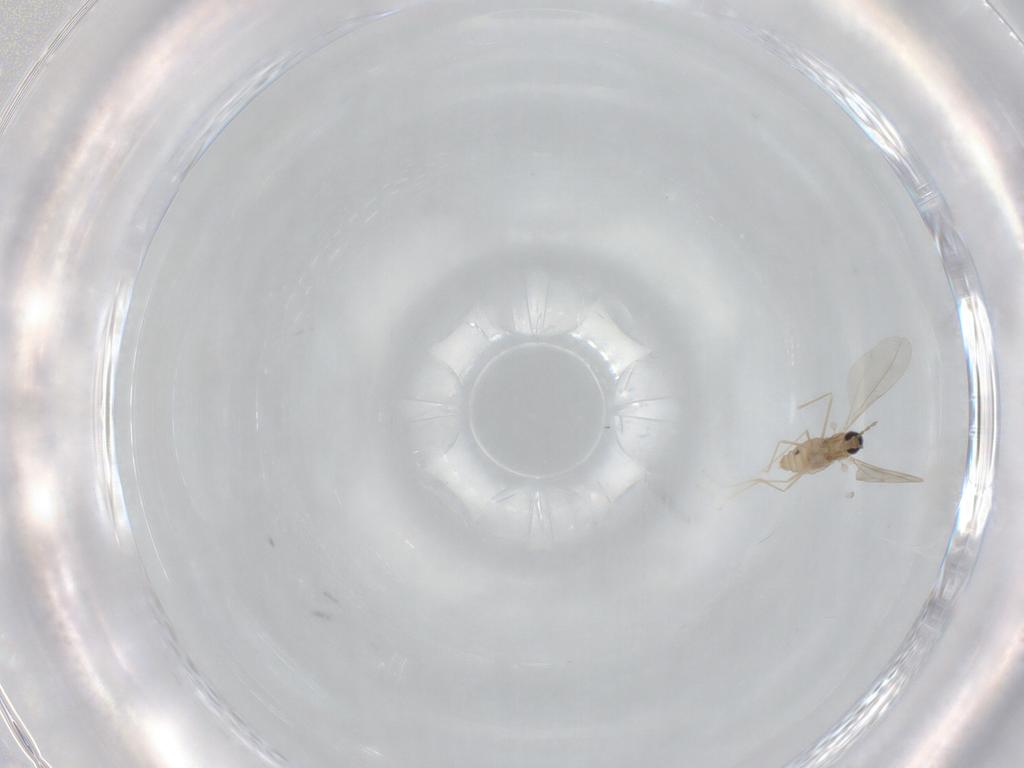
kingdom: Animalia
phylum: Arthropoda
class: Insecta
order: Diptera
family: Cecidomyiidae
